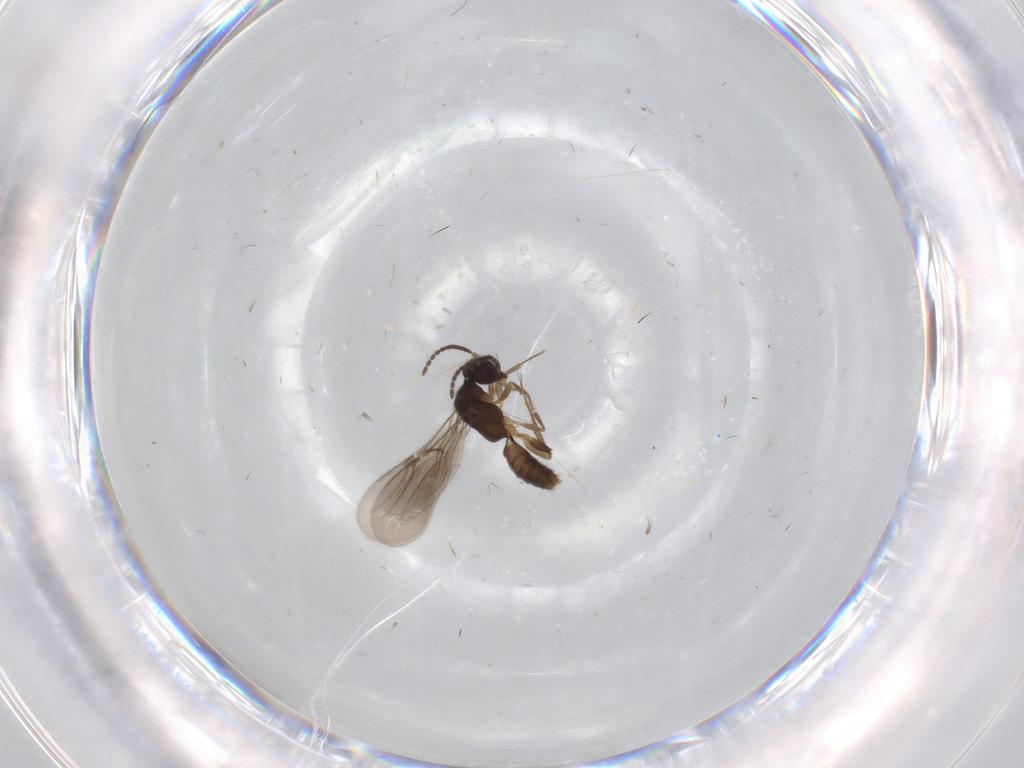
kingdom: Animalia
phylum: Arthropoda
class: Insecta
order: Hymenoptera
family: Bethylidae
